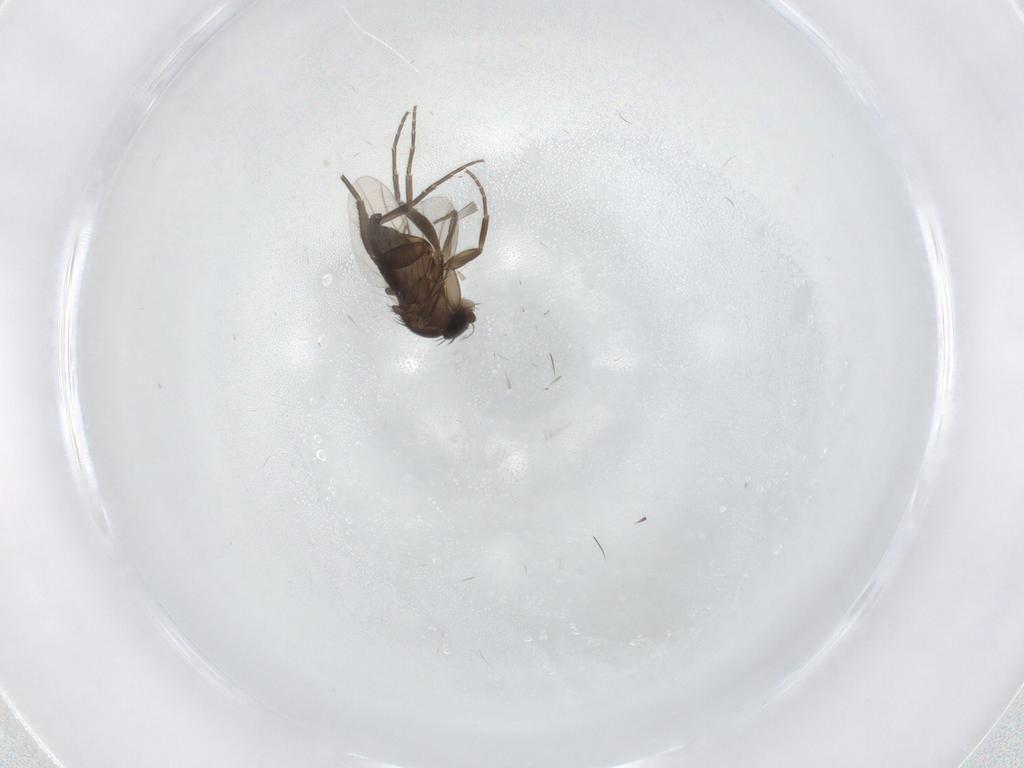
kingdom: Animalia
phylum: Arthropoda
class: Insecta
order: Diptera
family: Phoridae
